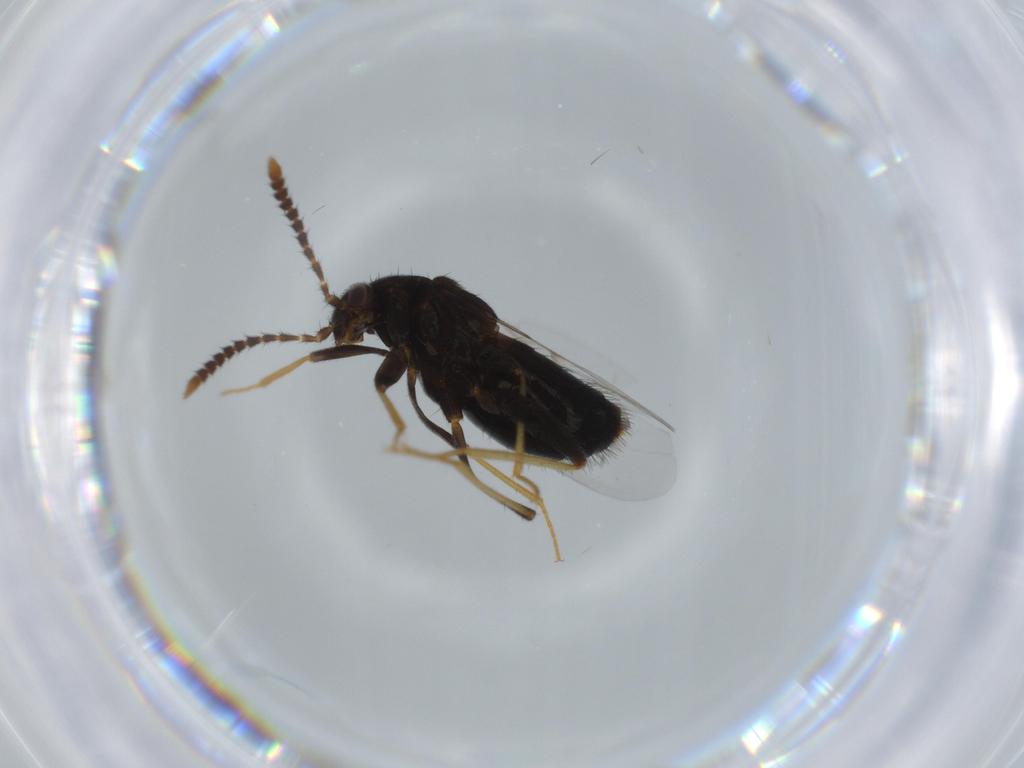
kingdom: Animalia
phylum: Arthropoda
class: Insecta
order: Coleoptera
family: Staphylinidae
